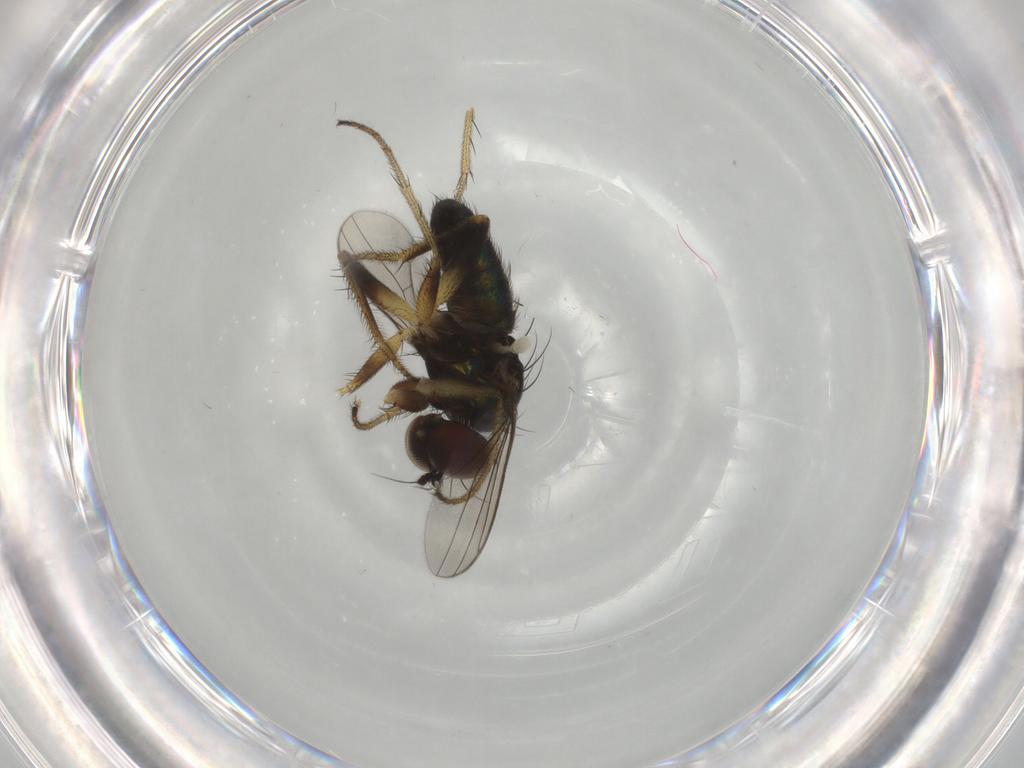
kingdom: Animalia
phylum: Arthropoda
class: Insecta
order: Diptera
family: Dolichopodidae
